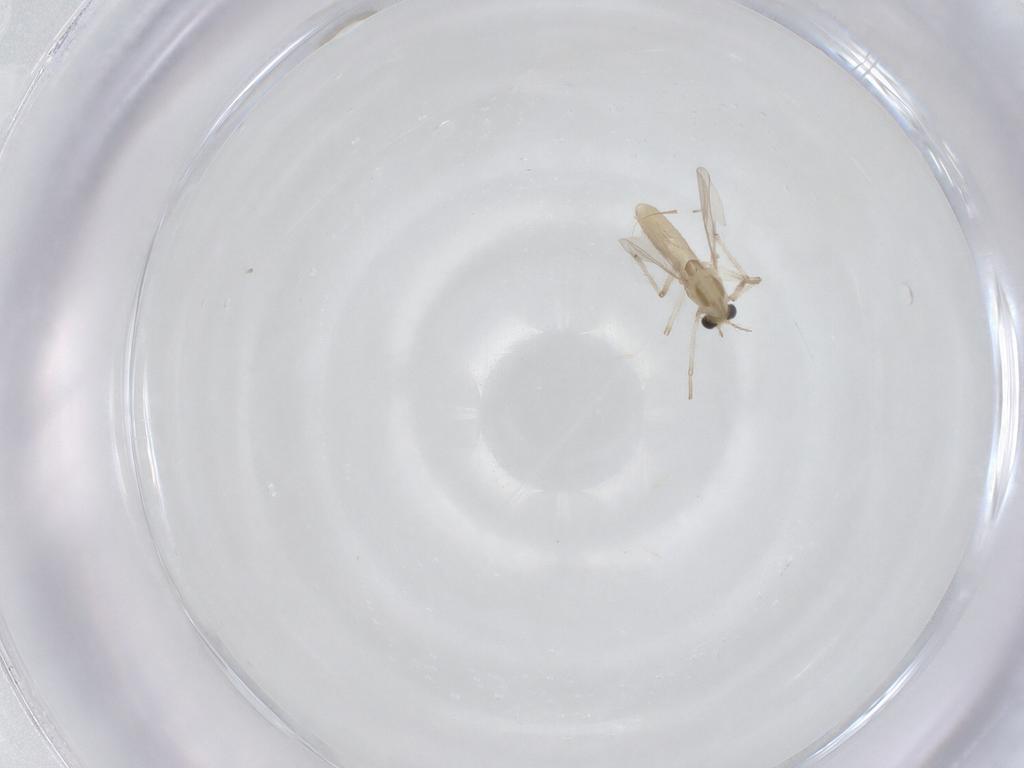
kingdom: Animalia
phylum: Arthropoda
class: Insecta
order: Diptera
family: Chironomidae
